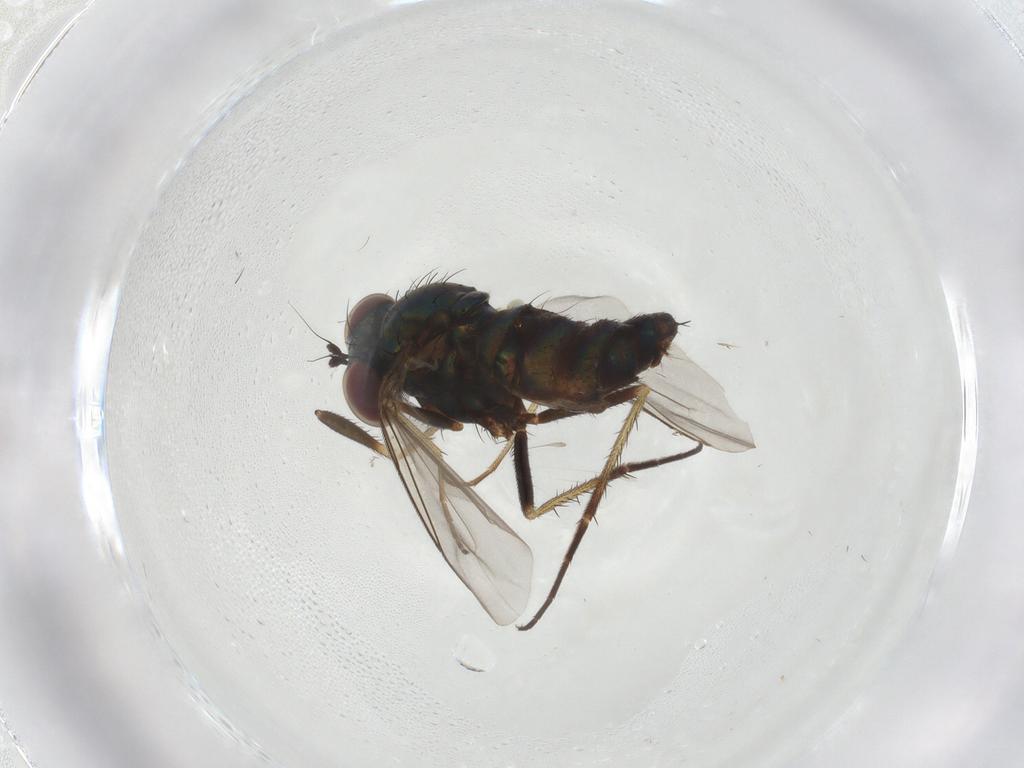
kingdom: Animalia
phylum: Arthropoda
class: Insecta
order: Diptera
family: Dolichopodidae
